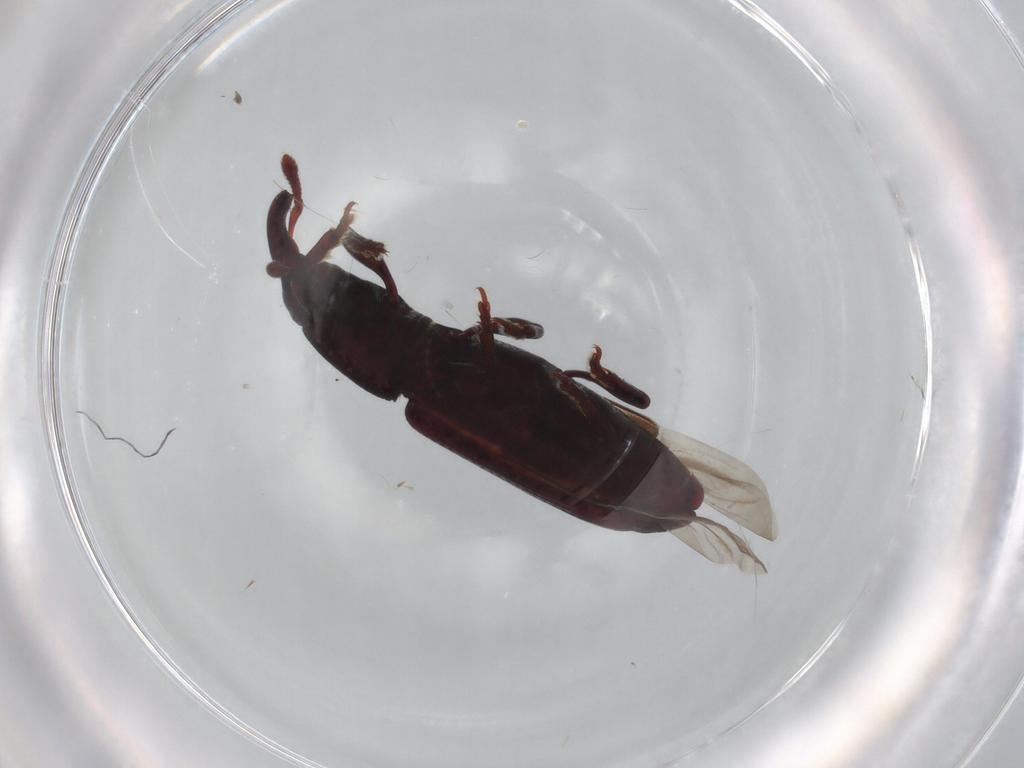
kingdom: Animalia
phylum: Arthropoda
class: Insecta
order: Coleoptera
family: Curculionidae
